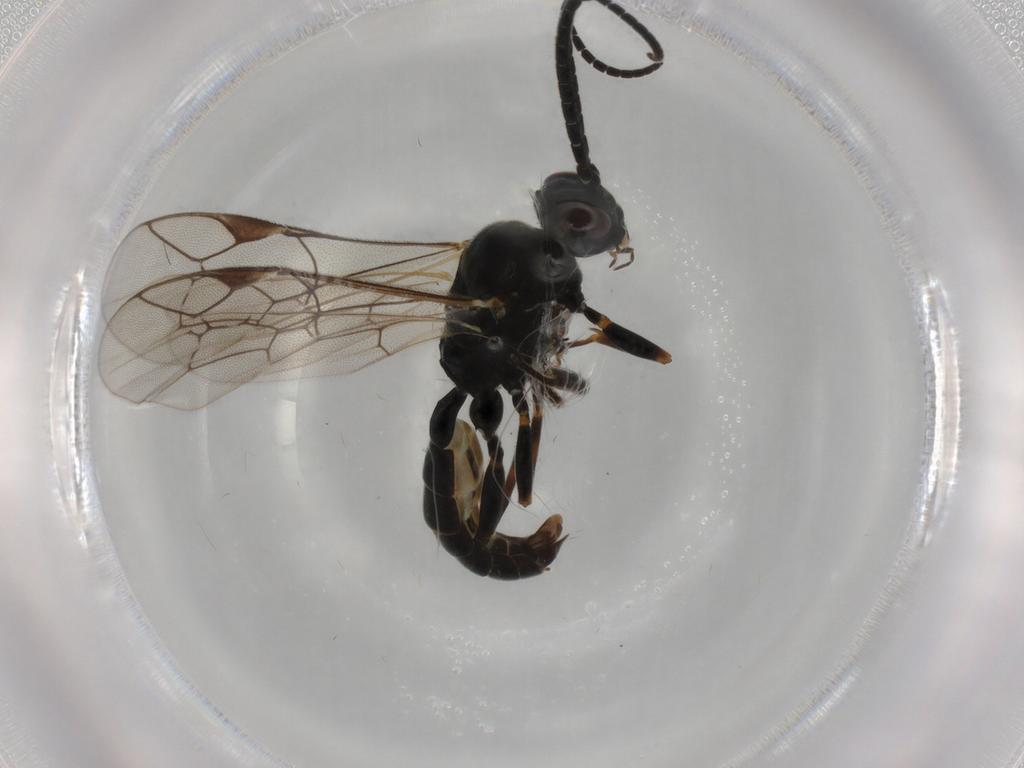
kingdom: Animalia
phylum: Arthropoda
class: Insecta
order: Hymenoptera
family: Ichneumonidae
